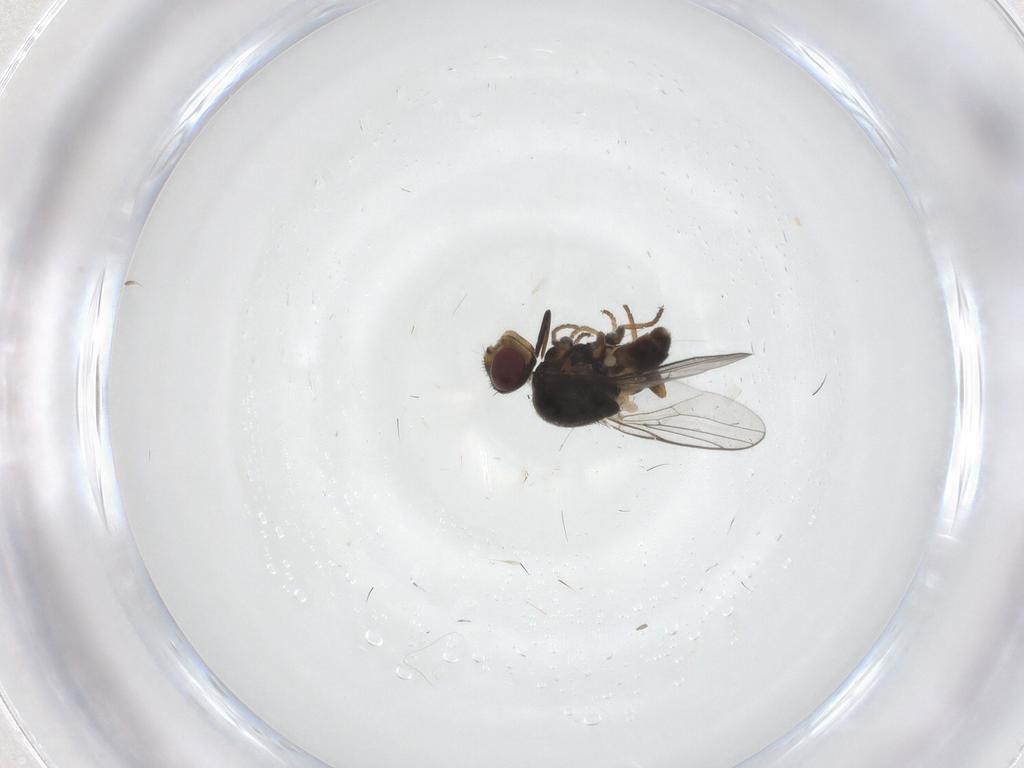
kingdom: Animalia
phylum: Arthropoda
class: Insecta
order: Diptera
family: Chloropidae
